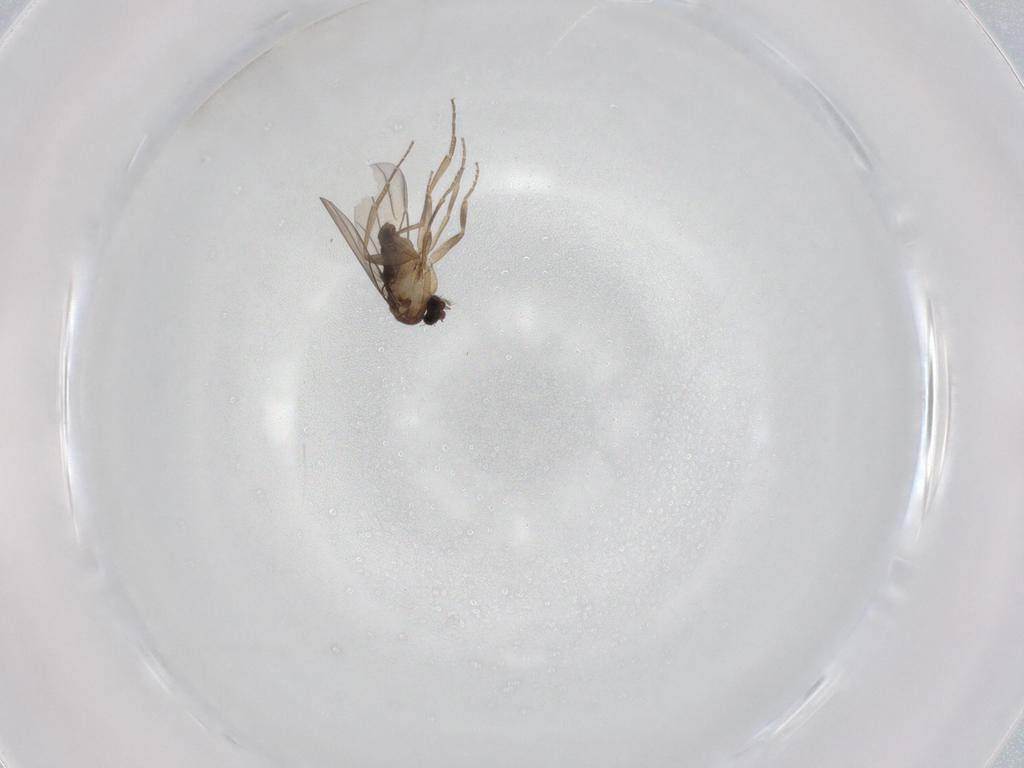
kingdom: Animalia
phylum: Arthropoda
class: Insecta
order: Diptera
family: Phoridae
